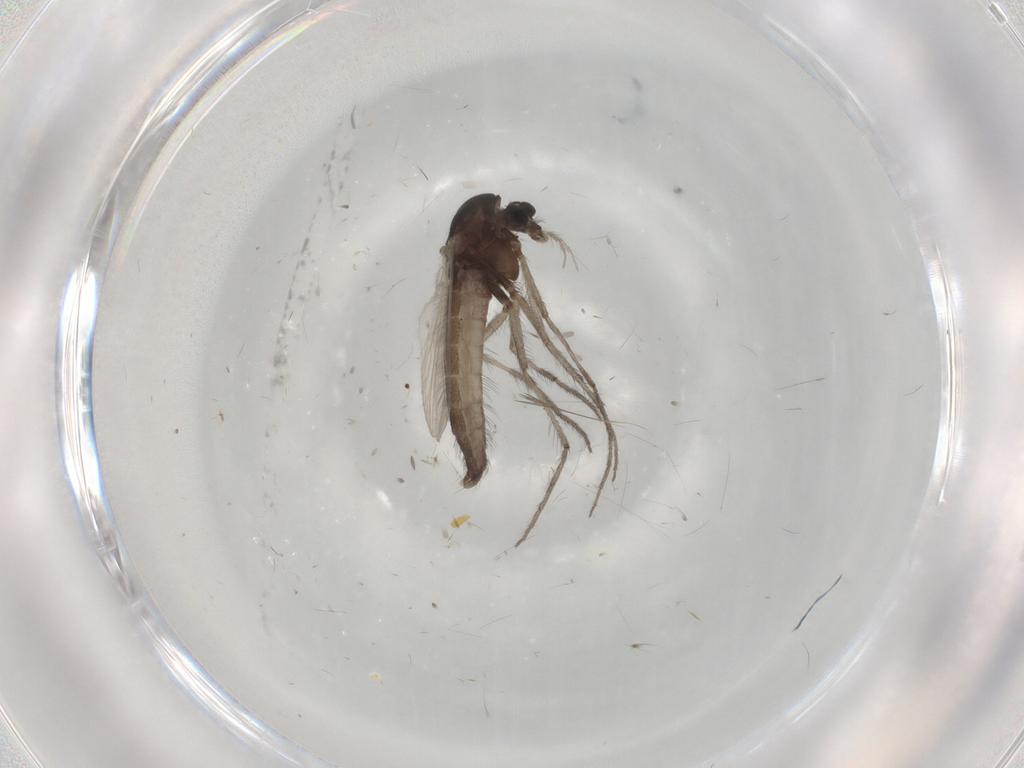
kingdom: Animalia
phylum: Arthropoda
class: Insecta
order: Diptera
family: Chironomidae
